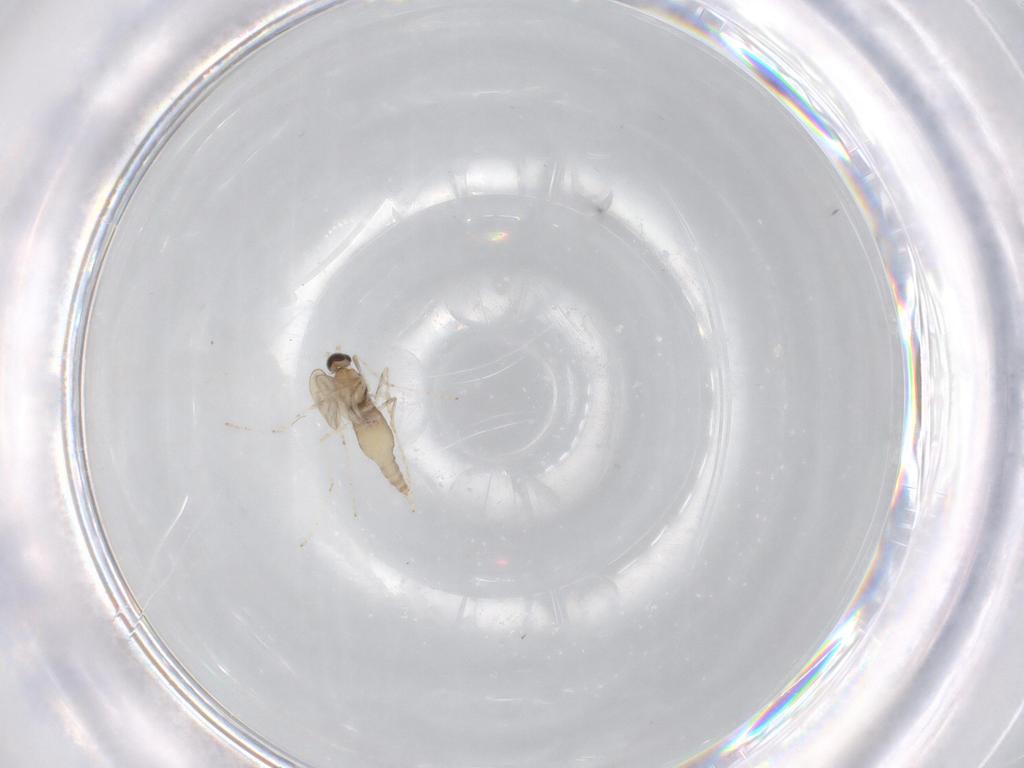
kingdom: Animalia
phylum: Arthropoda
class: Insecta
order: Diptera
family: Cecidomyiidae
